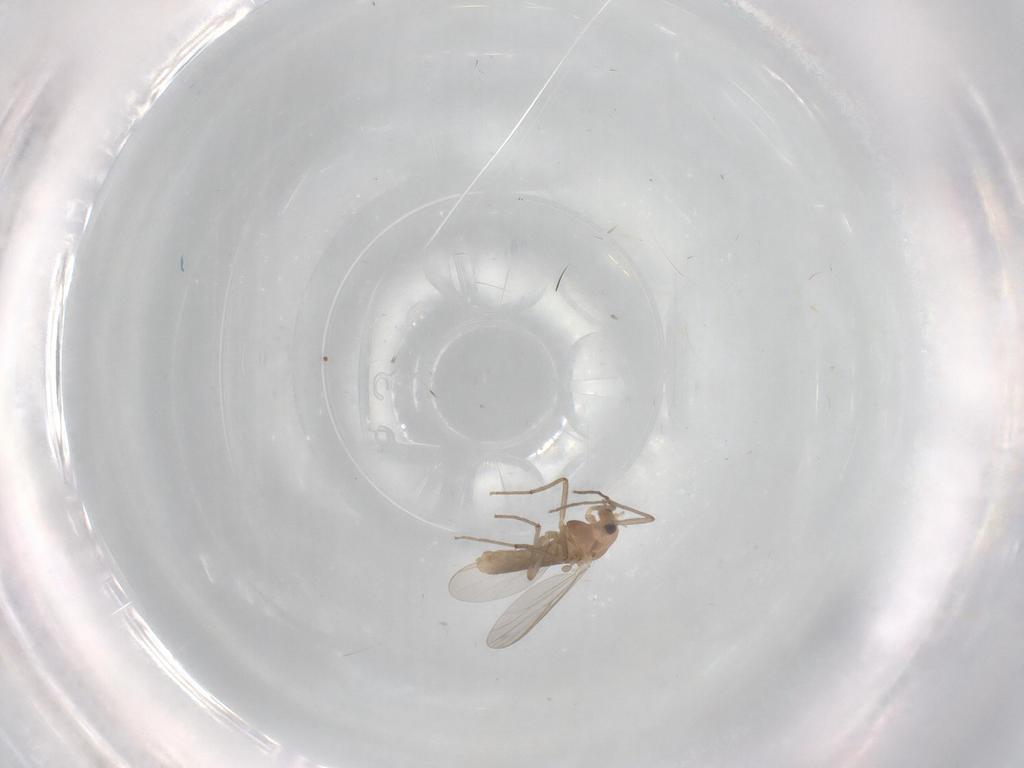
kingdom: Animalia
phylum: Arthropoda
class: Insecta
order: Diptera
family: Chironomidae
